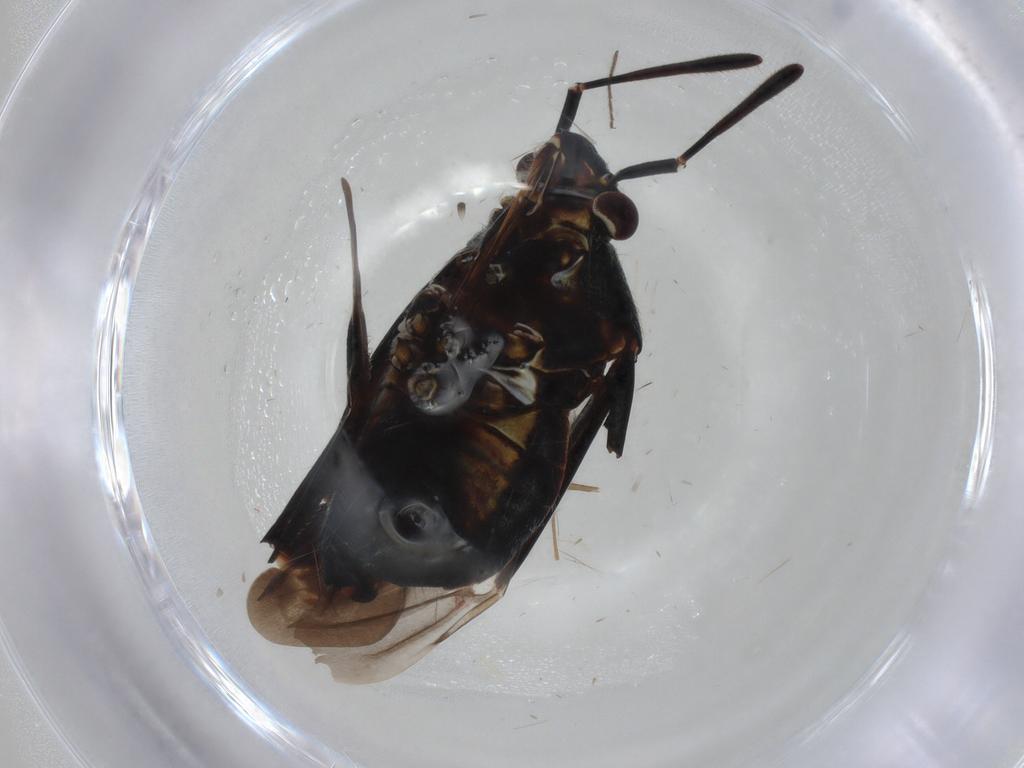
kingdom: Animalia
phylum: Arthropoda
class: Insecta
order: Hemiptera
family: Miridae
